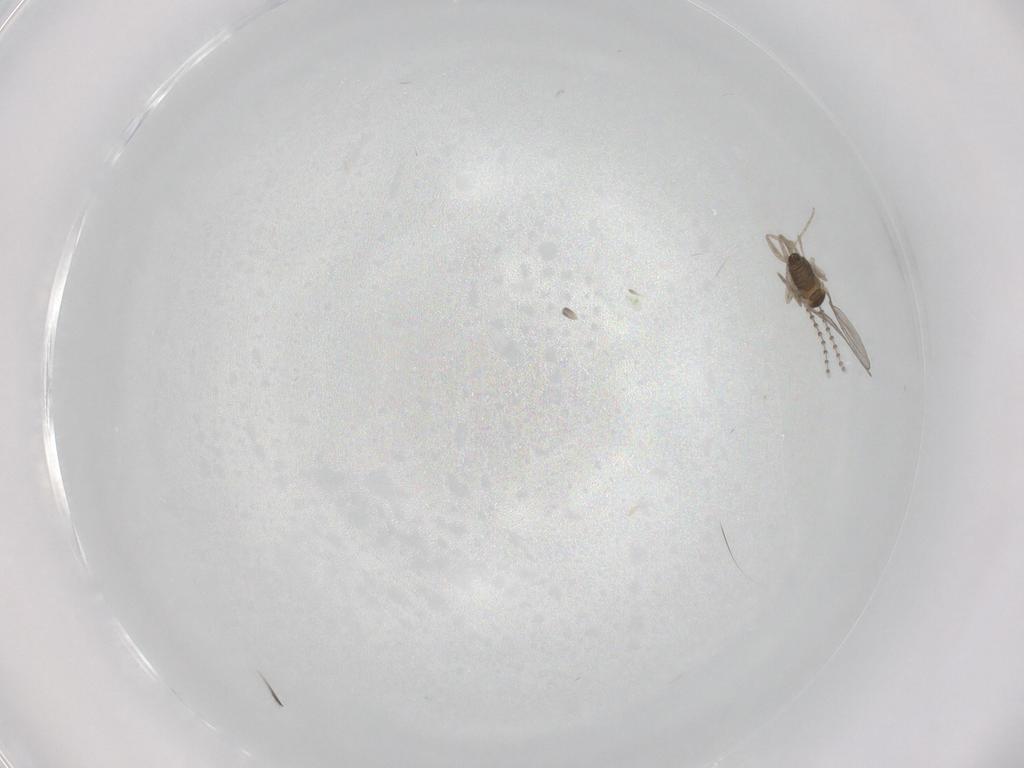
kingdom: Animalia
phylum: Arthropoda
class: Insecta
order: Diptera
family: Cecidomyiidae
